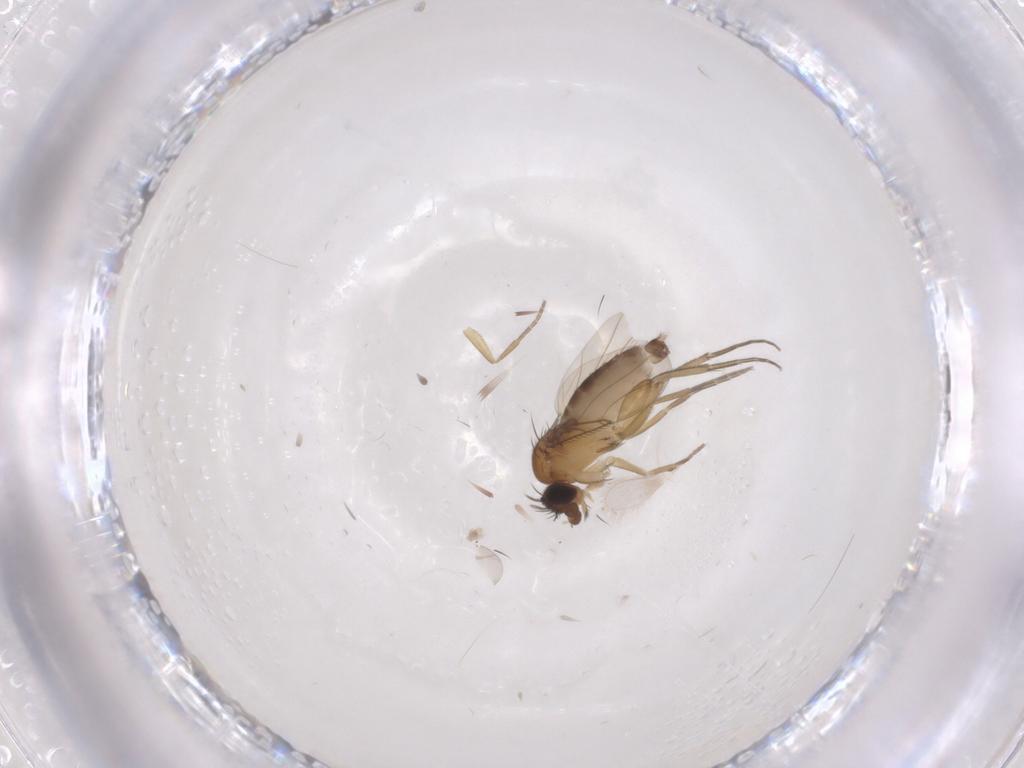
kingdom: Animalia
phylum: Arthropoda
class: Insecta
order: Diptera
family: Phoridae
